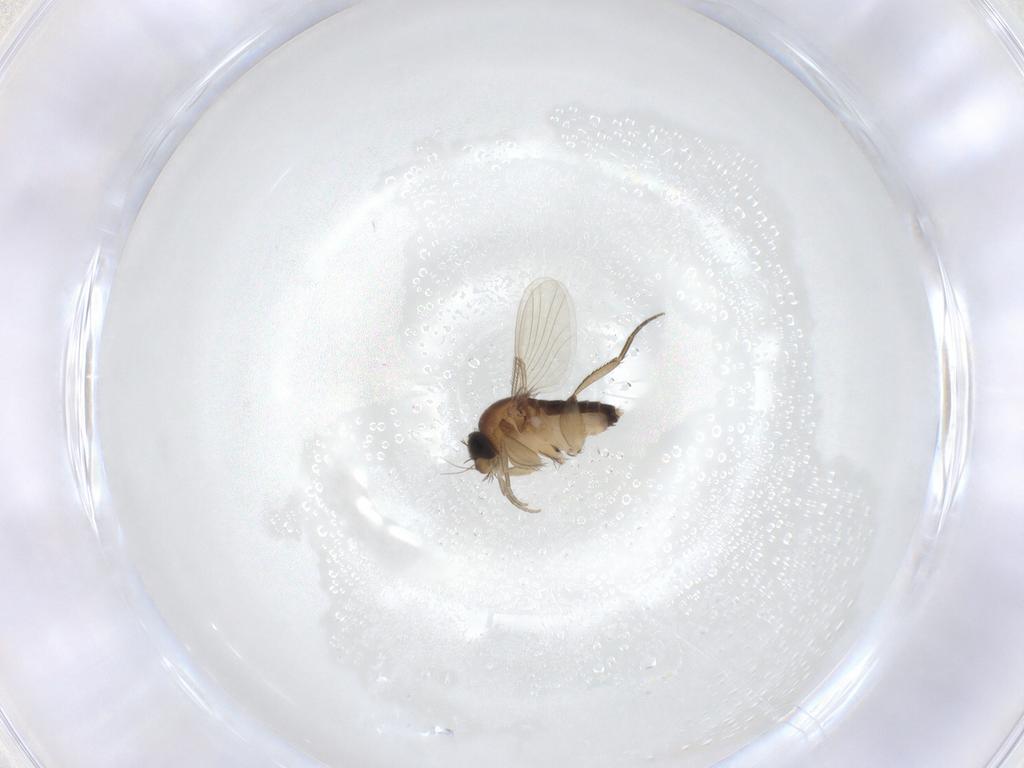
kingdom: Animalia
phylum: Arthropoda
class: Insecta
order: Diptera
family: Phoridae
